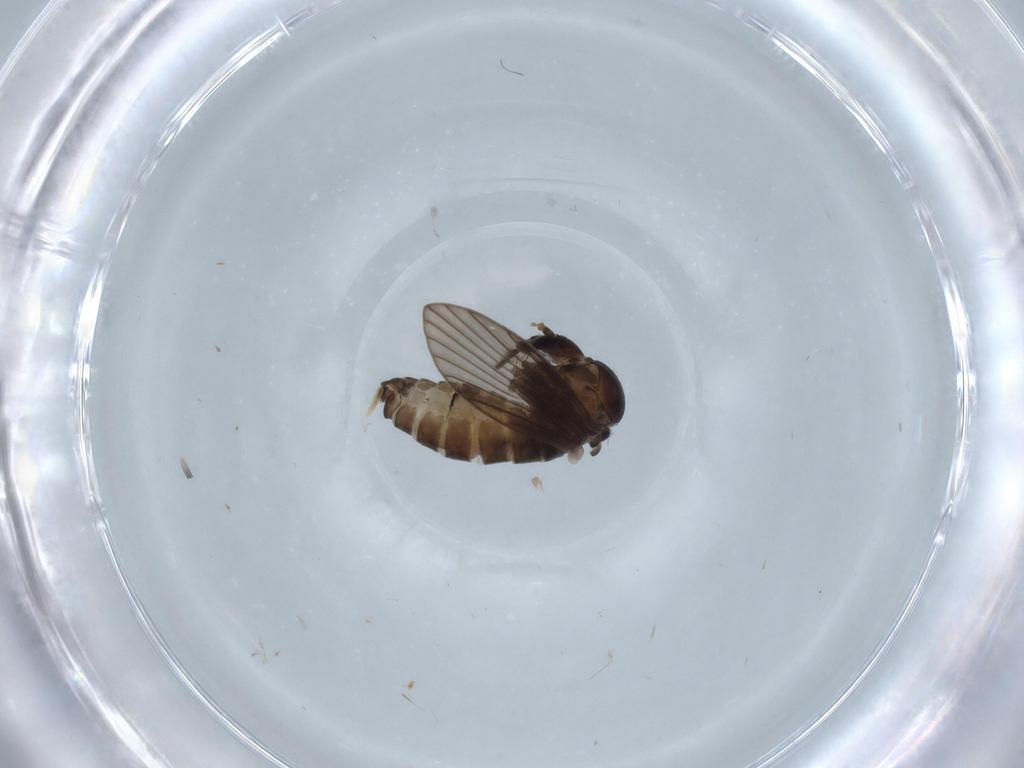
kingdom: Animalia
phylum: Arthropoda
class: Insecta
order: Diptera
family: Psychodidae
